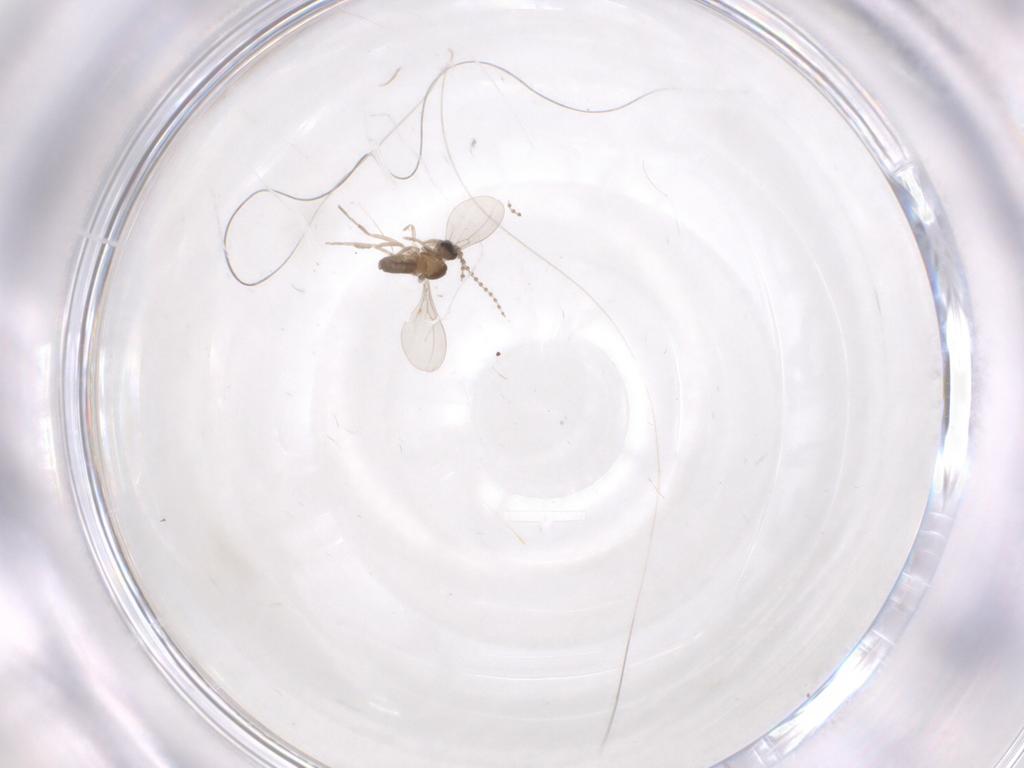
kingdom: Animalia
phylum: Arthropoda
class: Insecta
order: Diptera
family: Cecidomyiidae
